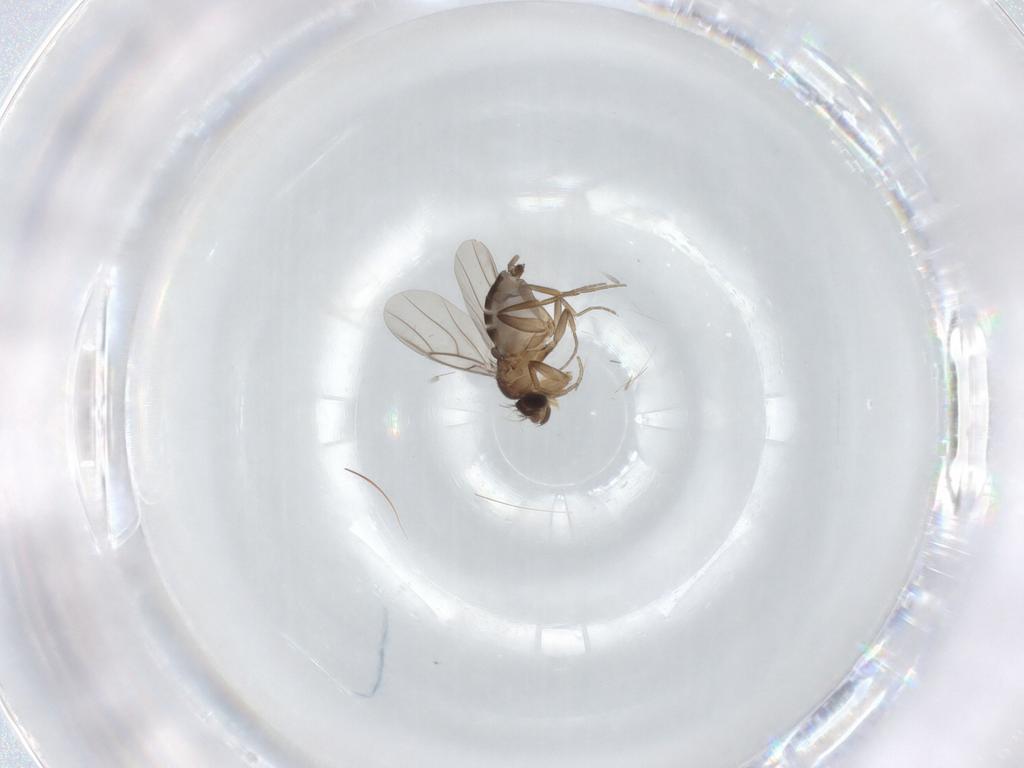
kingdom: Animalia
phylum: Arthropoda
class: Insecta
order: Diptera
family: Phoridae
